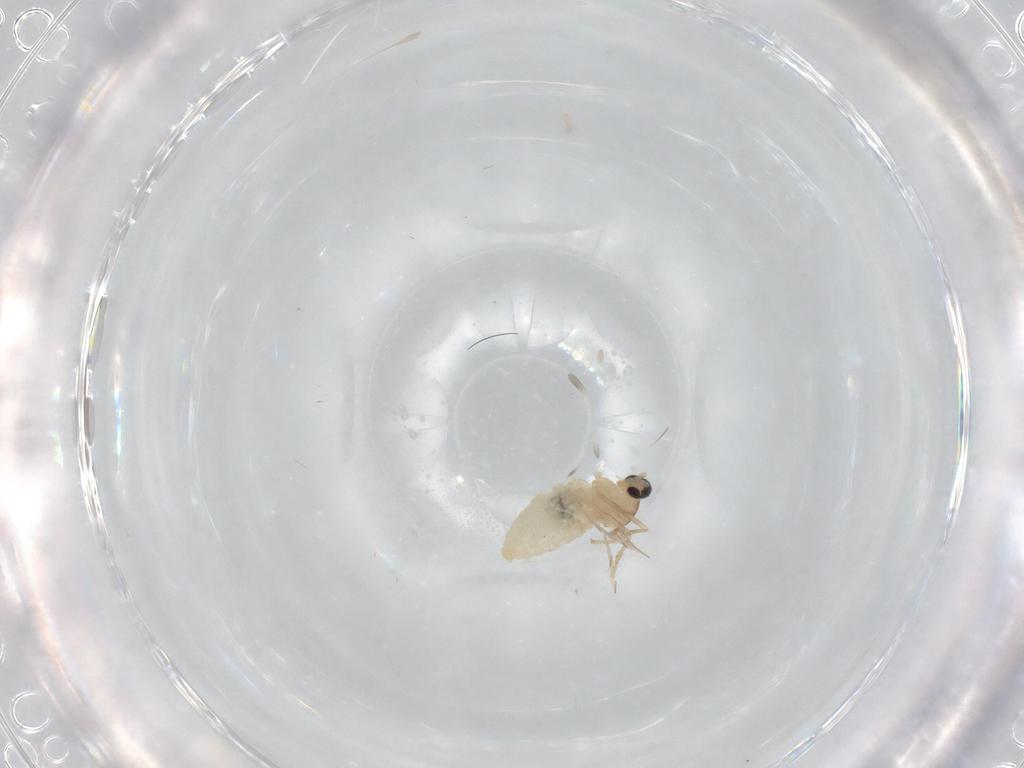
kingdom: Animalia
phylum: Arthropoda
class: Insecta
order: Diptera
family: Cecidomyiidae
